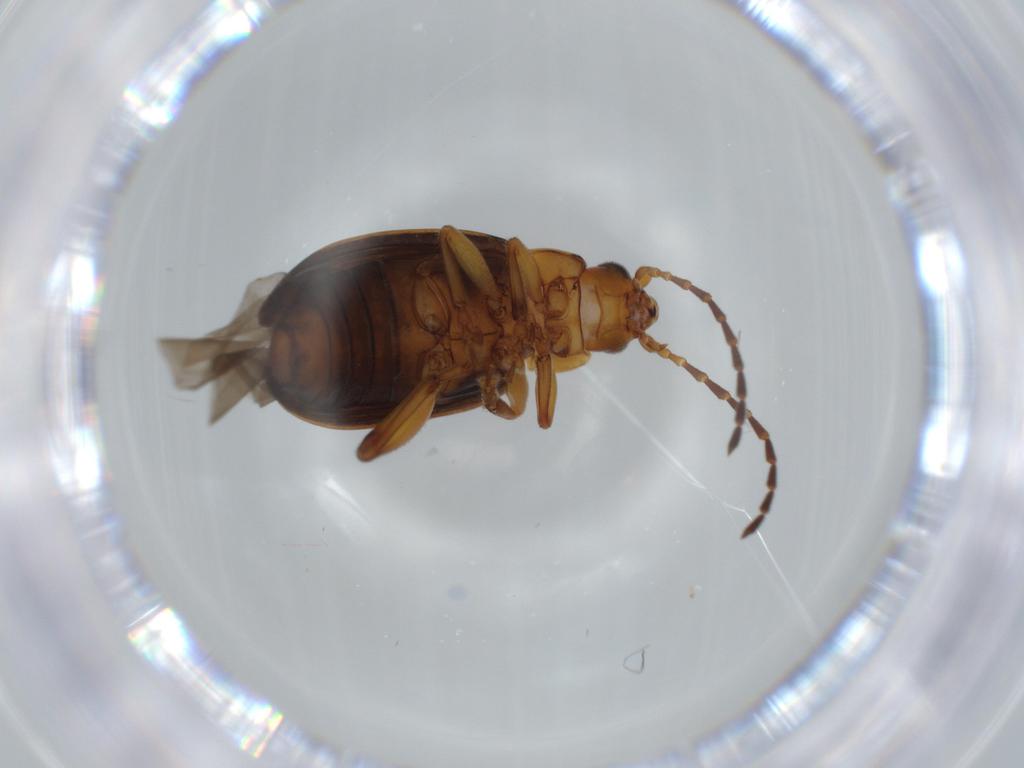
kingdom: Animalia
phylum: Arthropoda
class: Insecta
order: Coleoptera
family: Chrysomelidae
